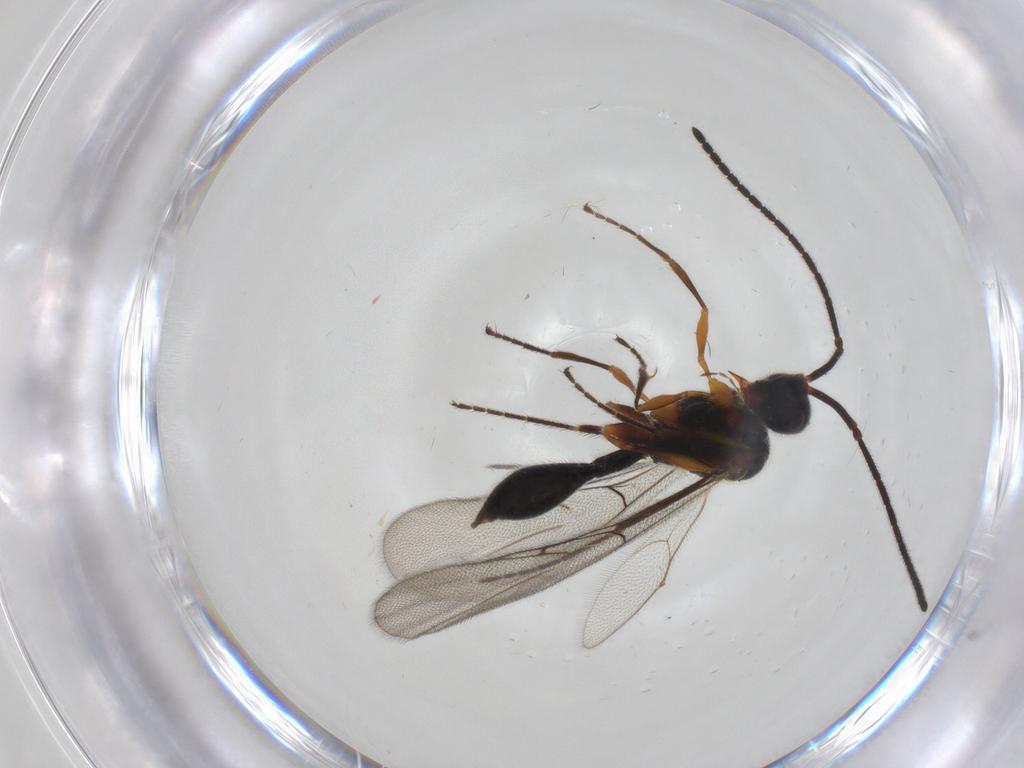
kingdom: Animalia
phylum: Arthropoda
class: Insecta
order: Hymenoptera
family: Diapriidae
